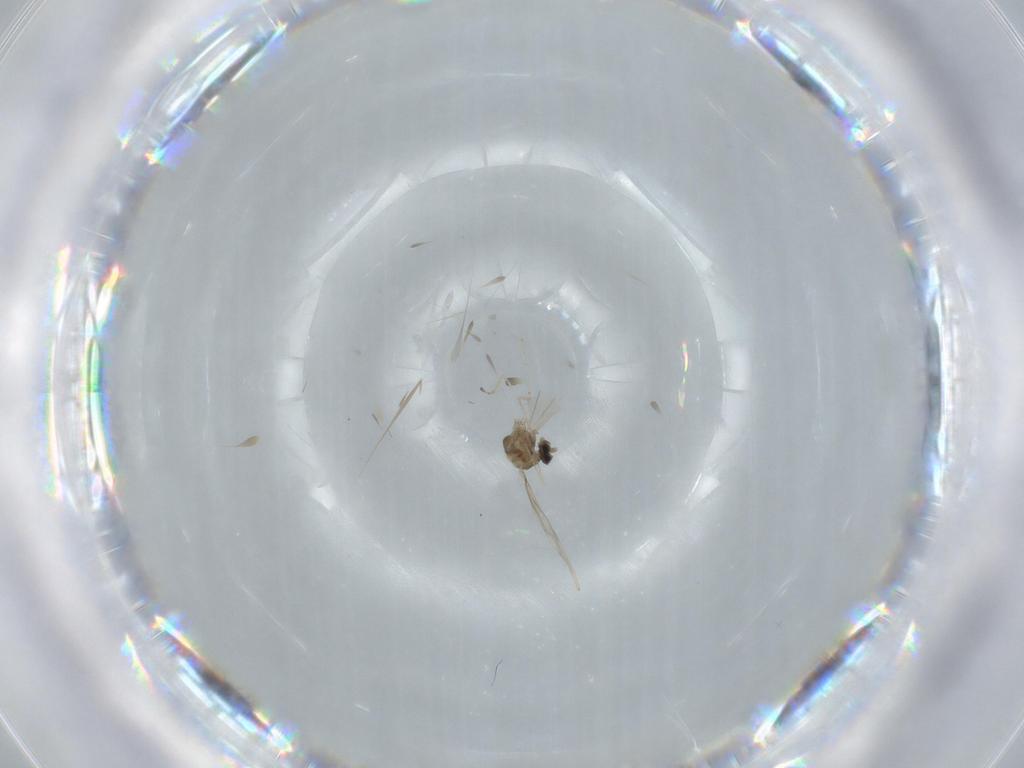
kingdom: Animalia
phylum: Arthropoda
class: Insecta
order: Diptera
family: Cecidomyiidae
